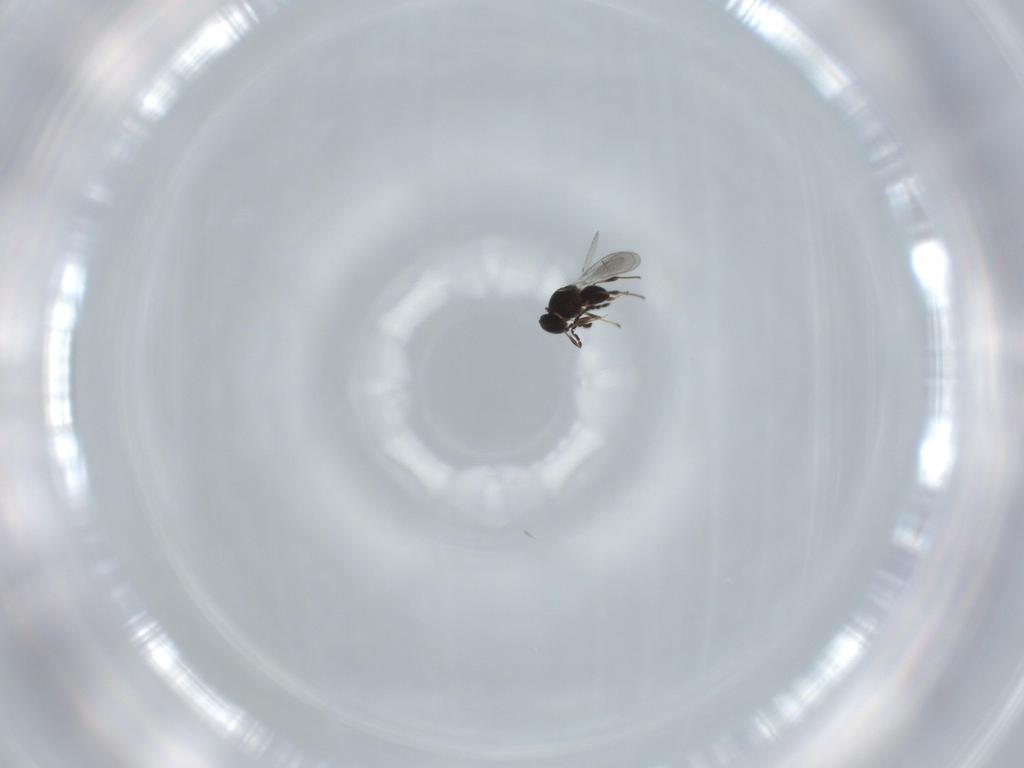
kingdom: Animalia
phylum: Arthropoda
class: Insecta
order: Hymenoptera
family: Platygastridae
